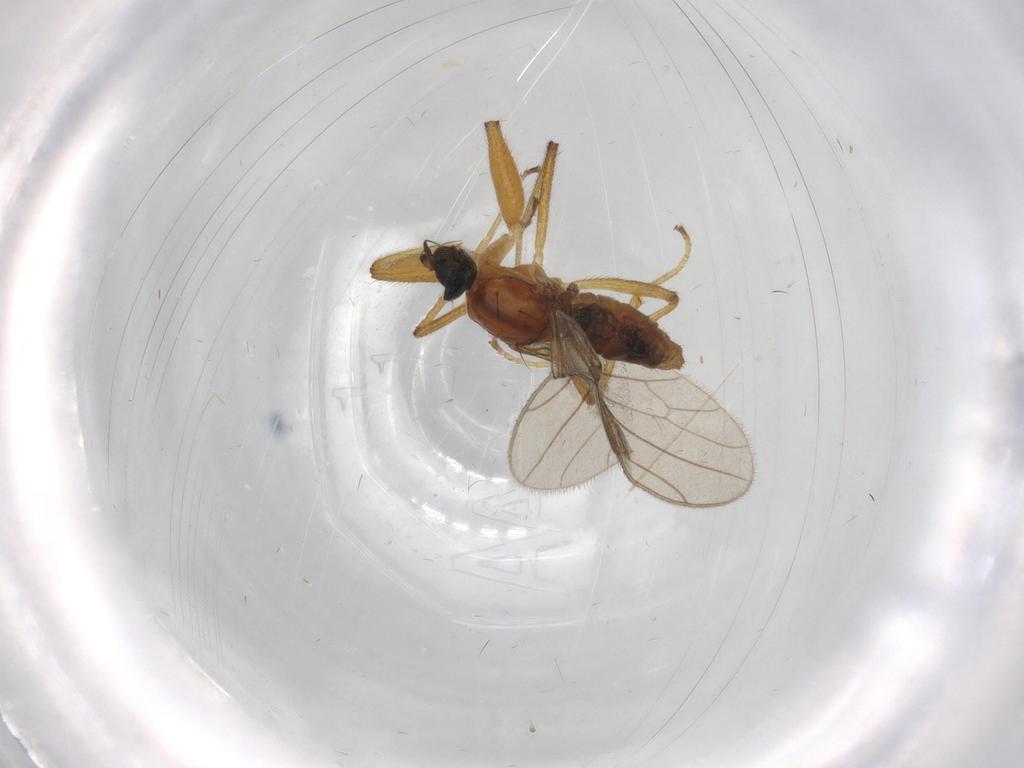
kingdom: Animalia
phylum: Arthropoda
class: Insecta
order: Diptera
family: Empididae
